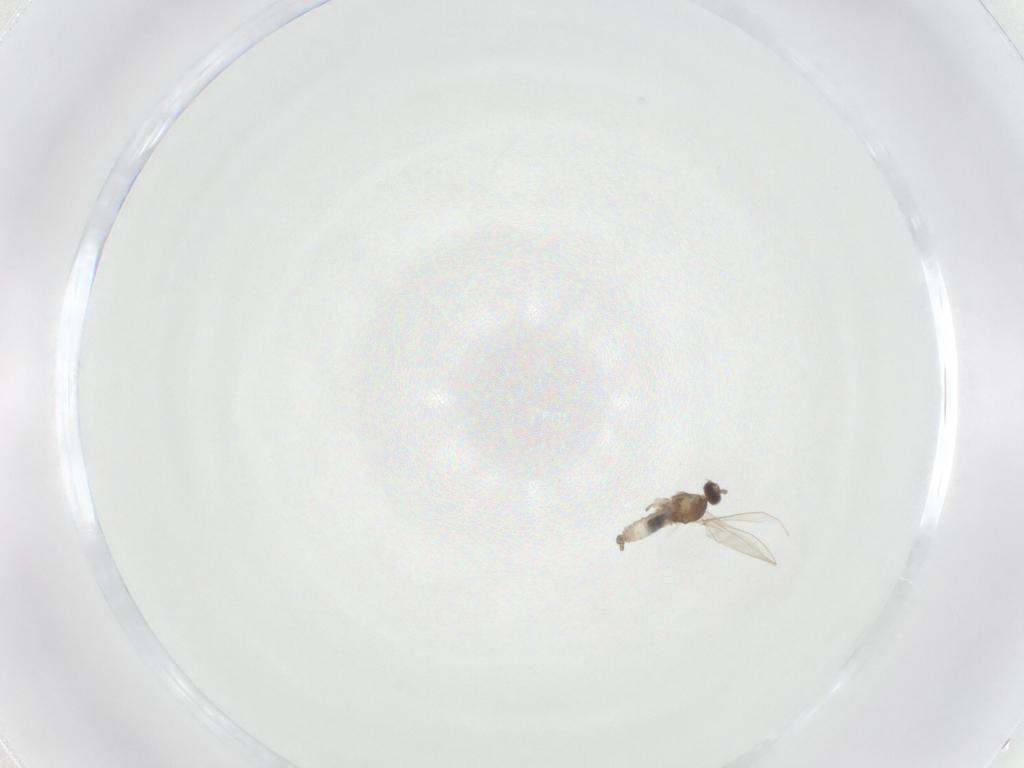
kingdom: Animalia
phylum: Arthropoda
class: Insecta
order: Diptera
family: Cecidomyiidae
